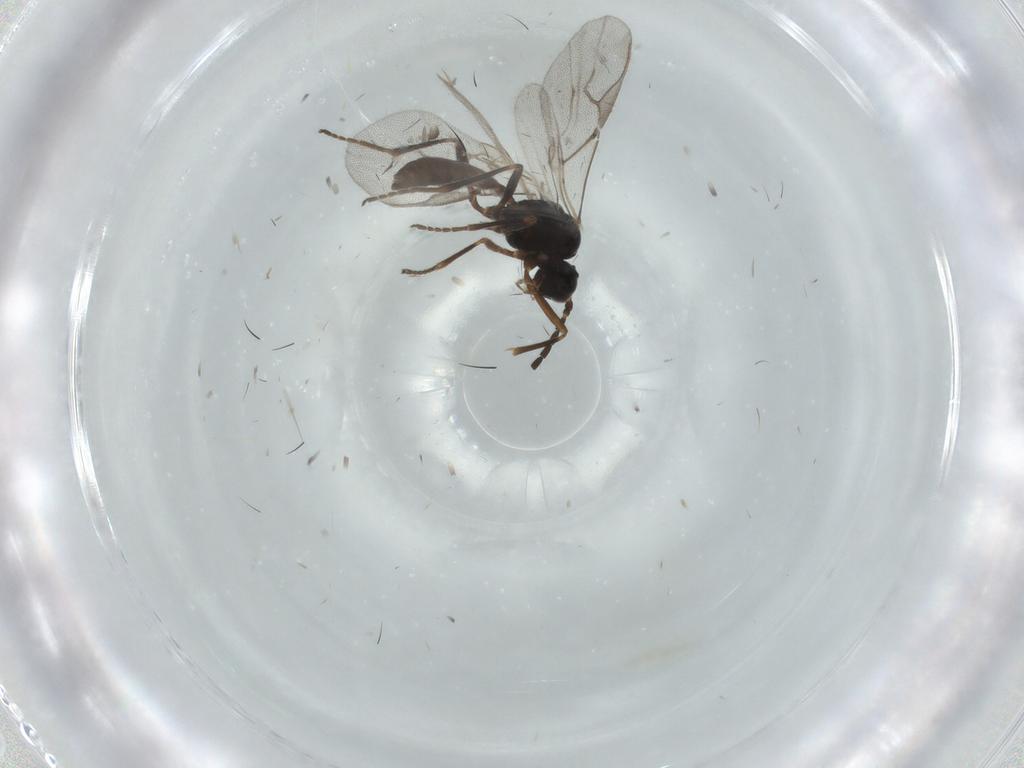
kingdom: Animalia
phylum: Arthropoda
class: Insecta
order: Hymenoptera
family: Braconidae
